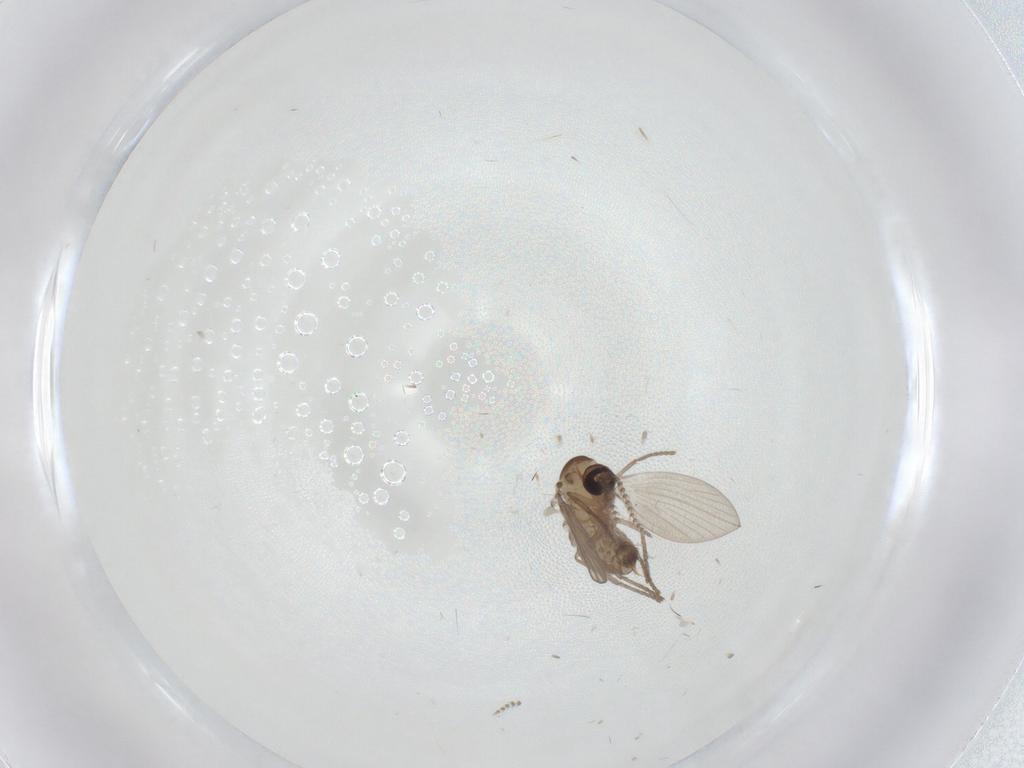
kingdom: Animalia
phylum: Arthropoda
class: Insecta
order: Diptera
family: Psychodidae
